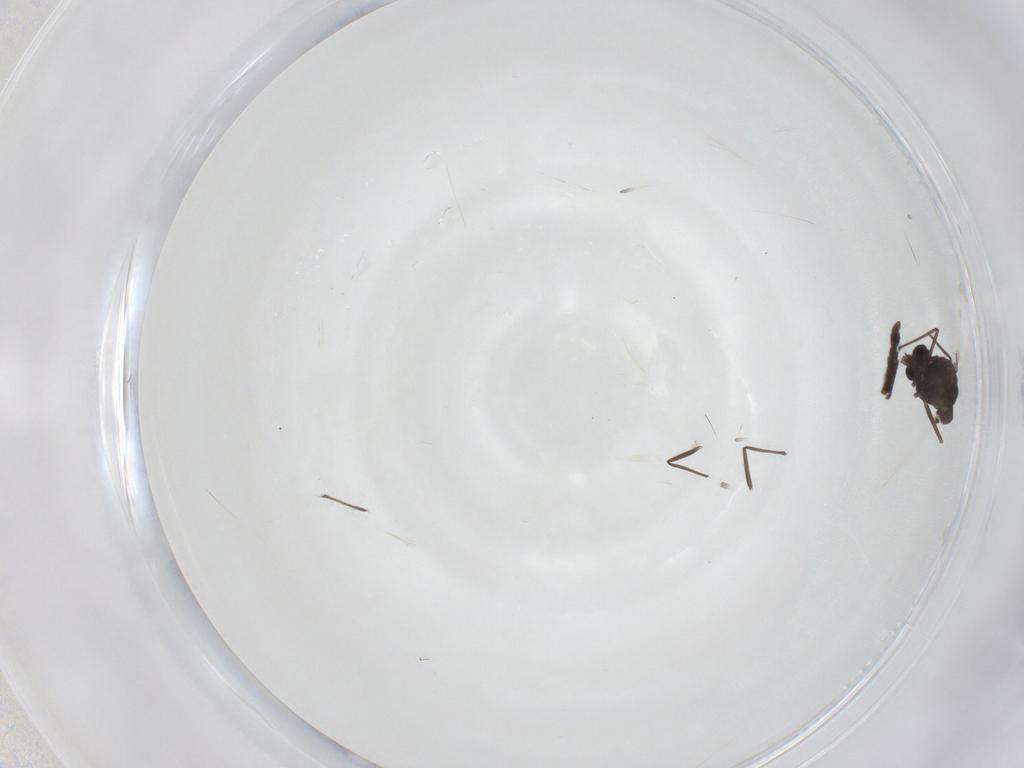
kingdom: Animalia
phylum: Arthropoda
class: Insecta
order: Diptera
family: Chironomidae
